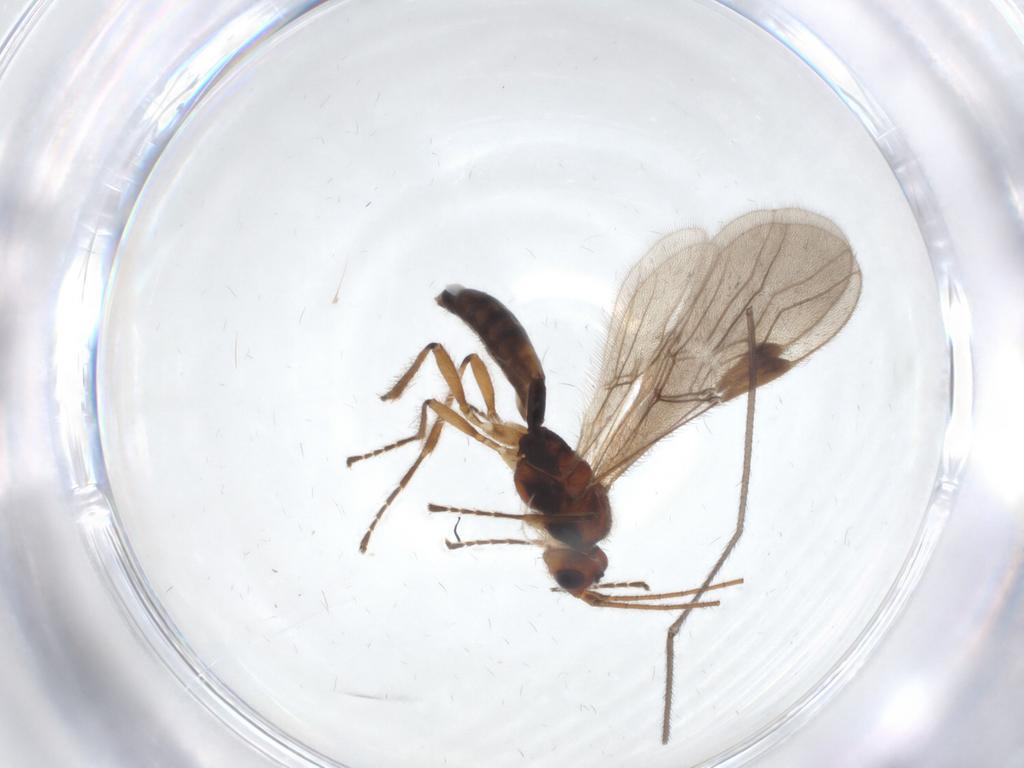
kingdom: Animalia
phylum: Arthropoda
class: Insecta
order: Hymenoptera
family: Braconidae
